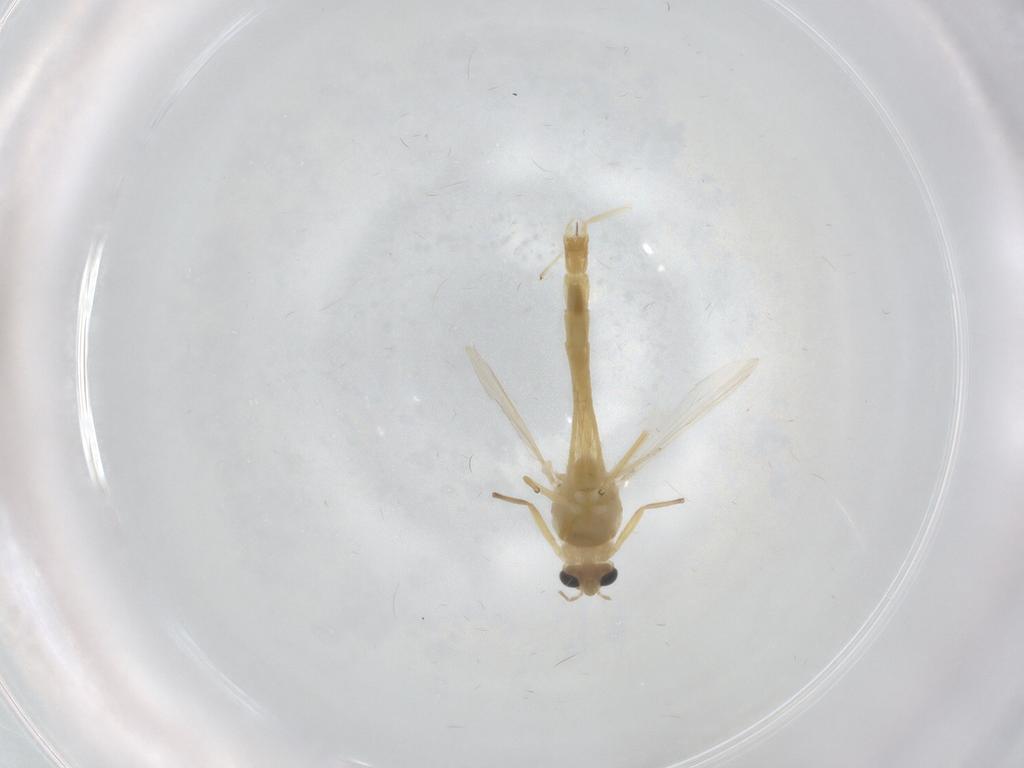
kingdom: Animalia
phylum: Arthropoda
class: Insecta
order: Diptera
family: Chironomidae
